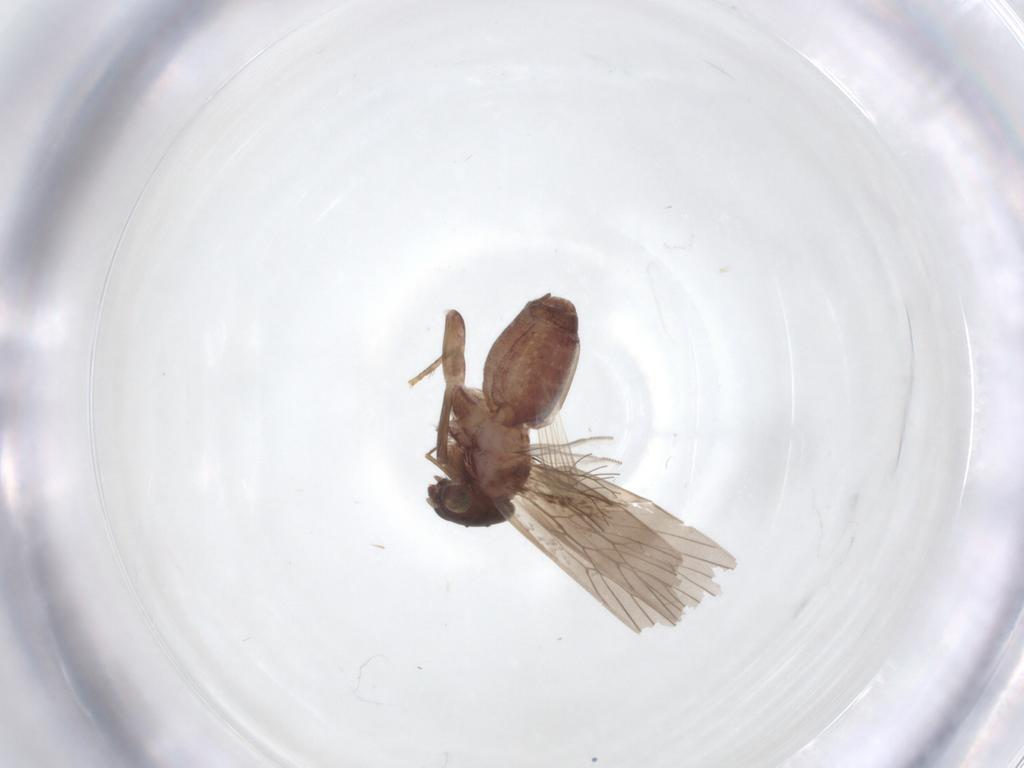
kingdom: Animalia
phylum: Arthropoda
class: Insecta
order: Psocodea
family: Lepidopsocidae
